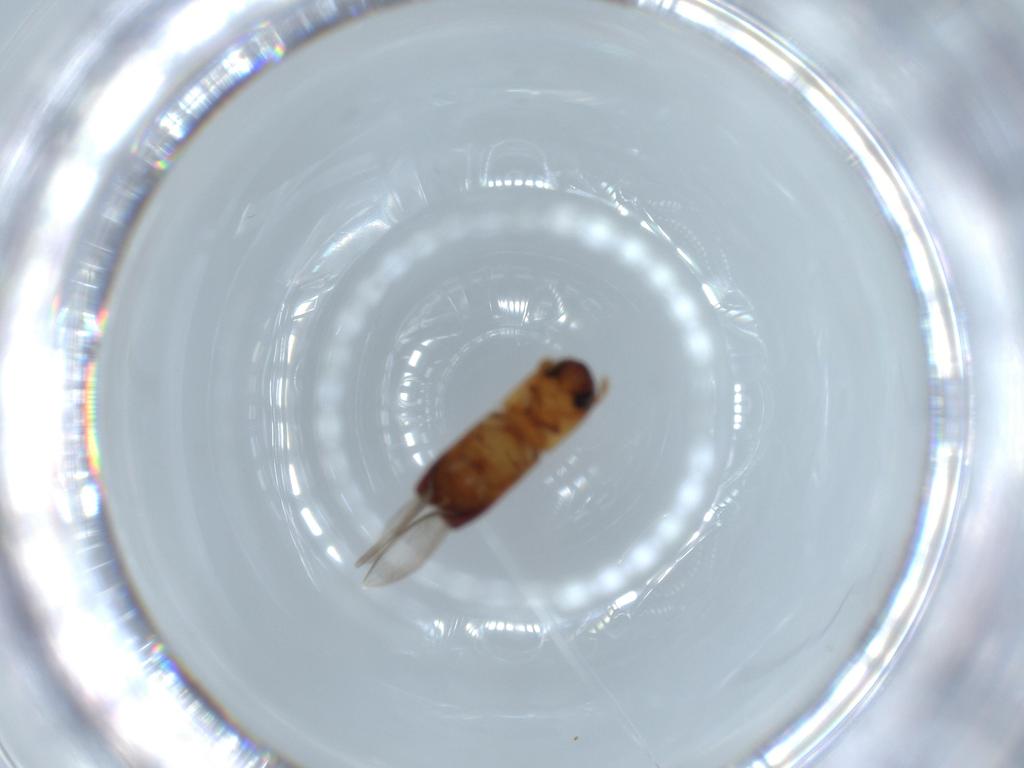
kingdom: Animalia
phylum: Arthropoda
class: Insecta
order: Coleoptera
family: Curculionidae
